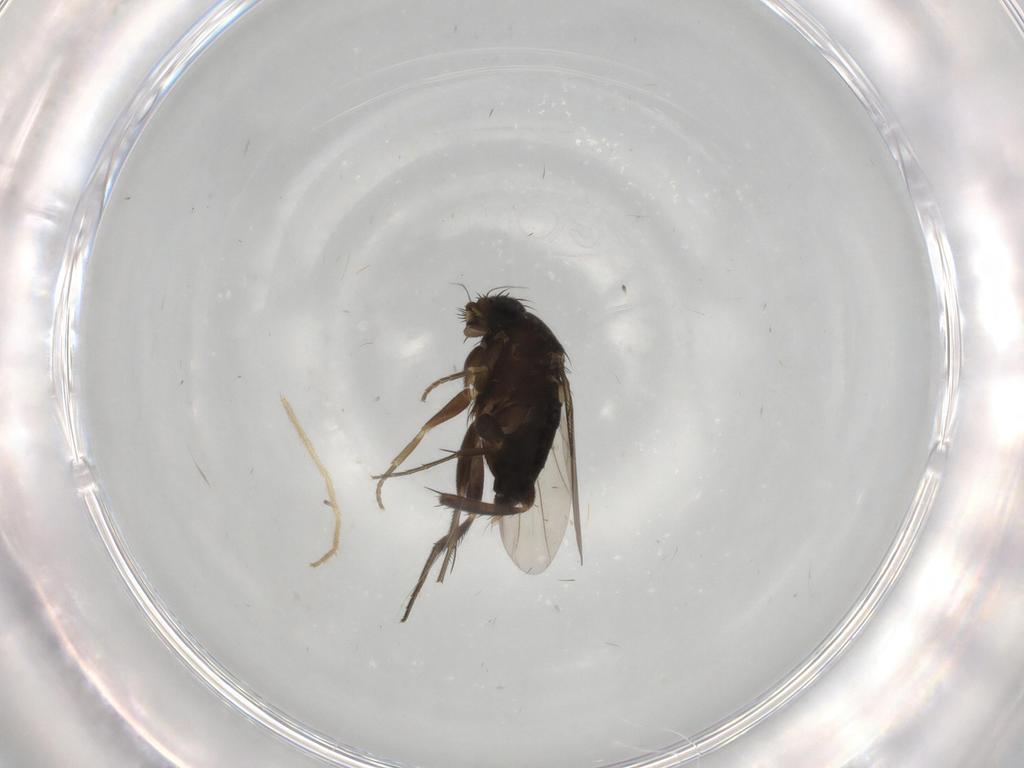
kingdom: Animalia
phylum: Arthropoda
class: Insecta
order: Diptera
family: Phoridae
